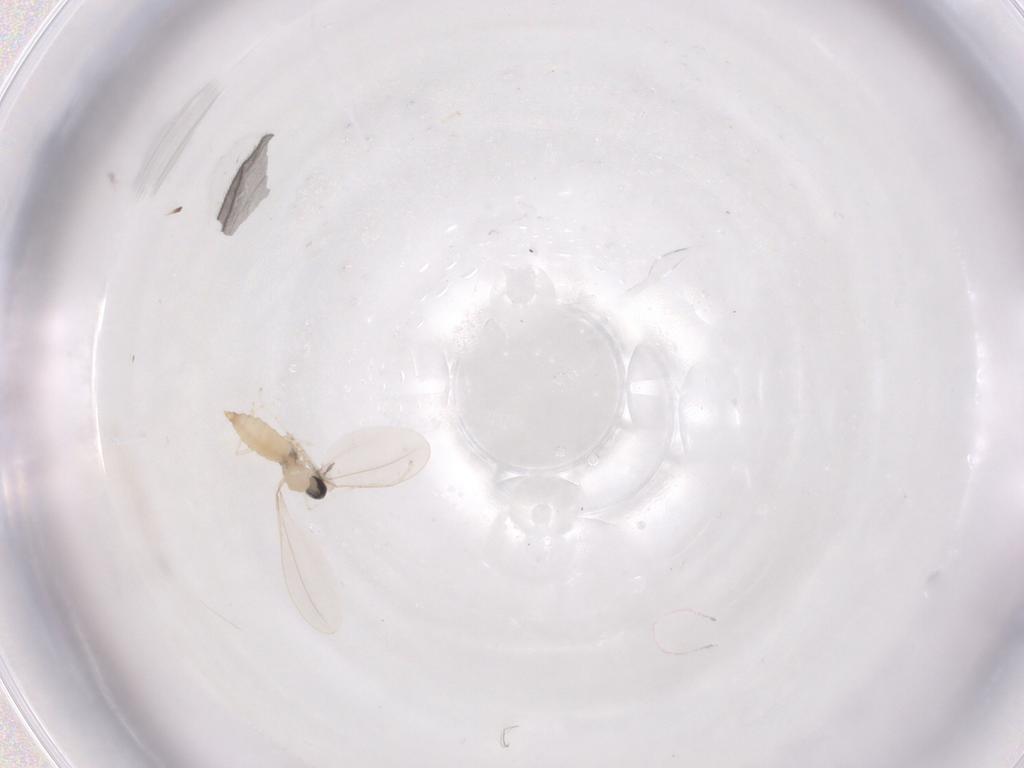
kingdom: Animalia
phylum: Arthropoda
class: Insecta
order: Diptera
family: Cecidomyiidae
